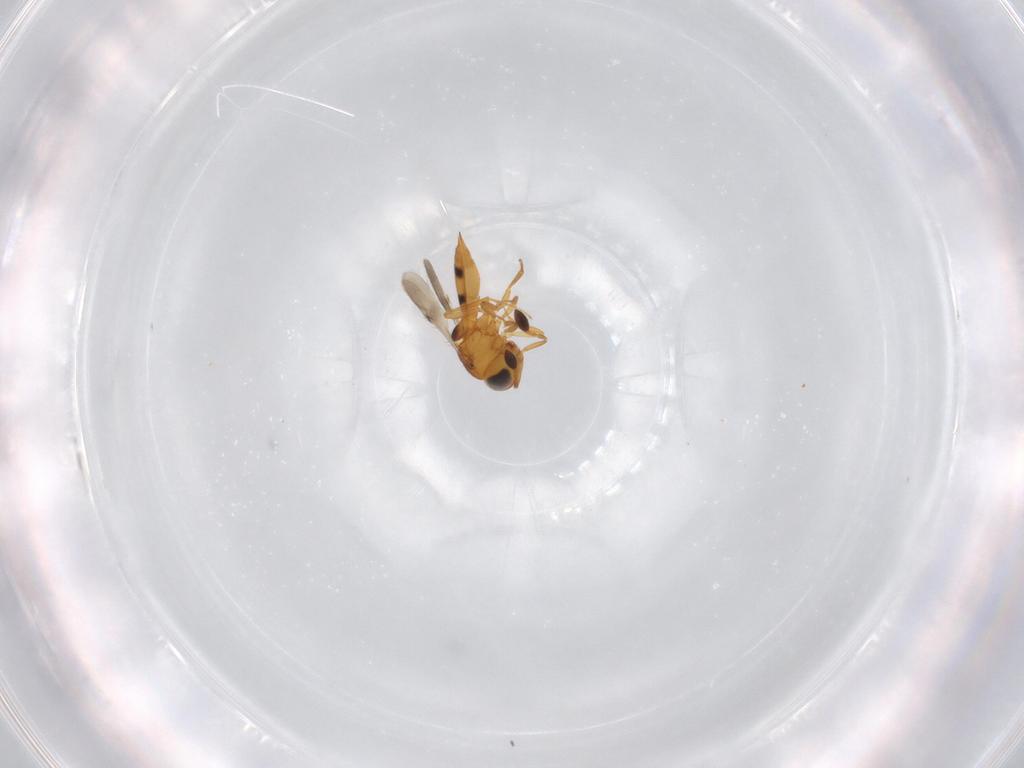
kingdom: Animalia
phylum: Arthropoda
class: Insecta
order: Hymenoptera
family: Scelionidae
